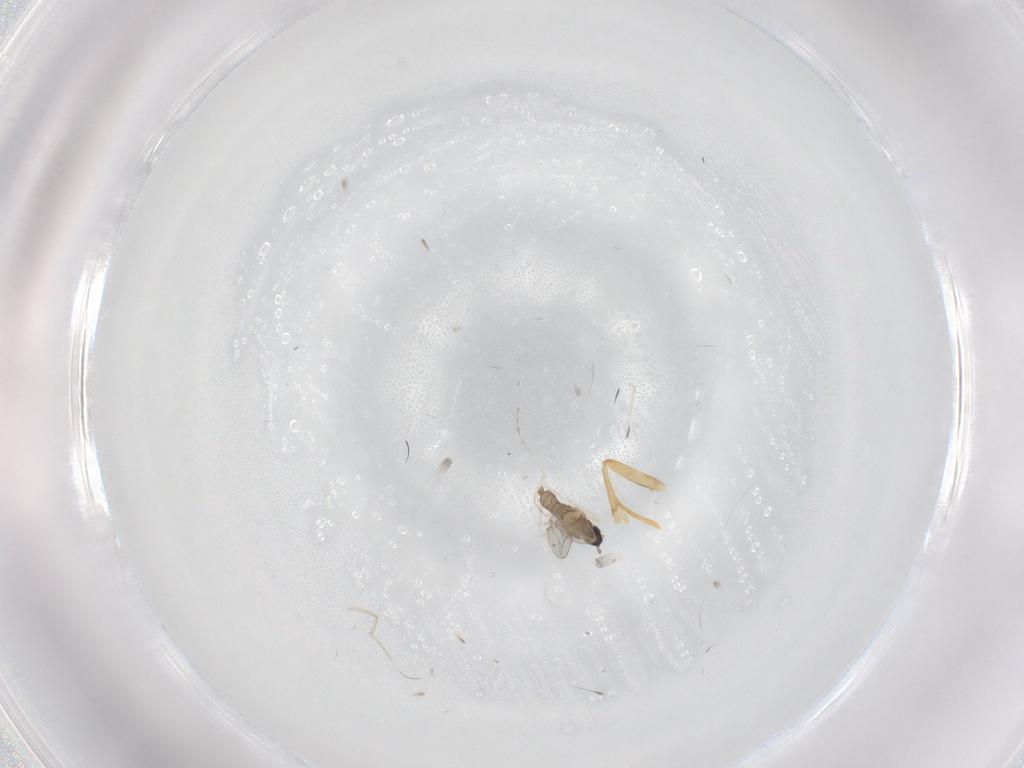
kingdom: Animalia
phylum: Arthropoda
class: Insecta
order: Diptera
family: Cecidomyiidae
